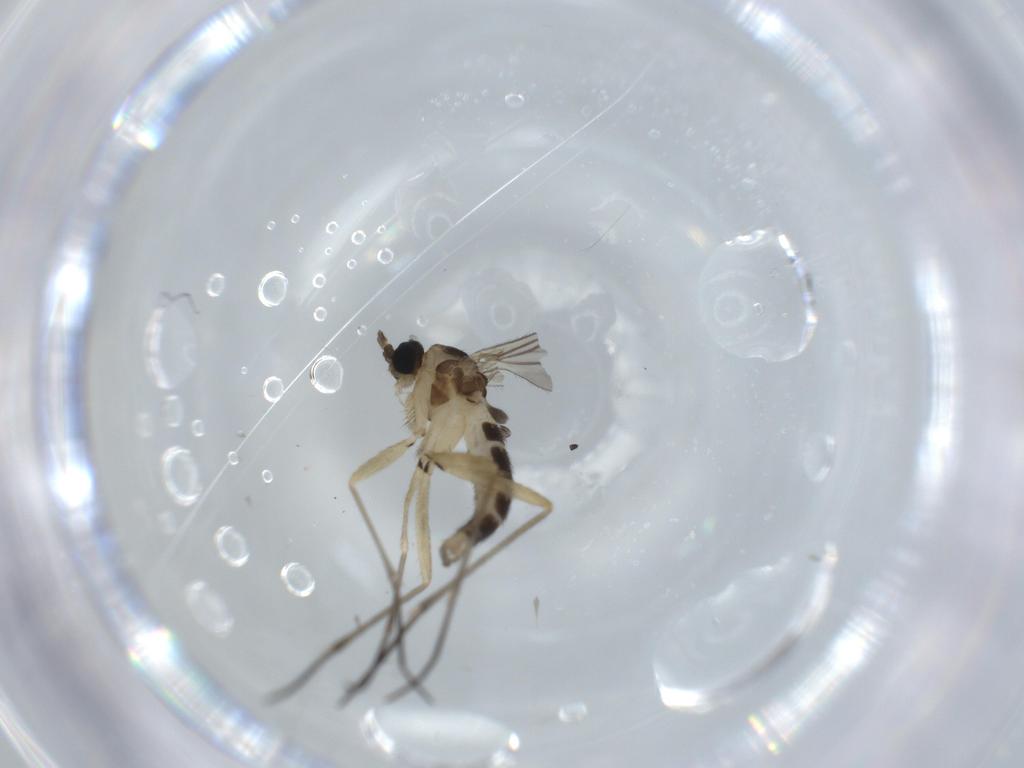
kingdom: Animalia
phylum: Arthropoda
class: Insecta
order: Diptera
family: Sciaridae
